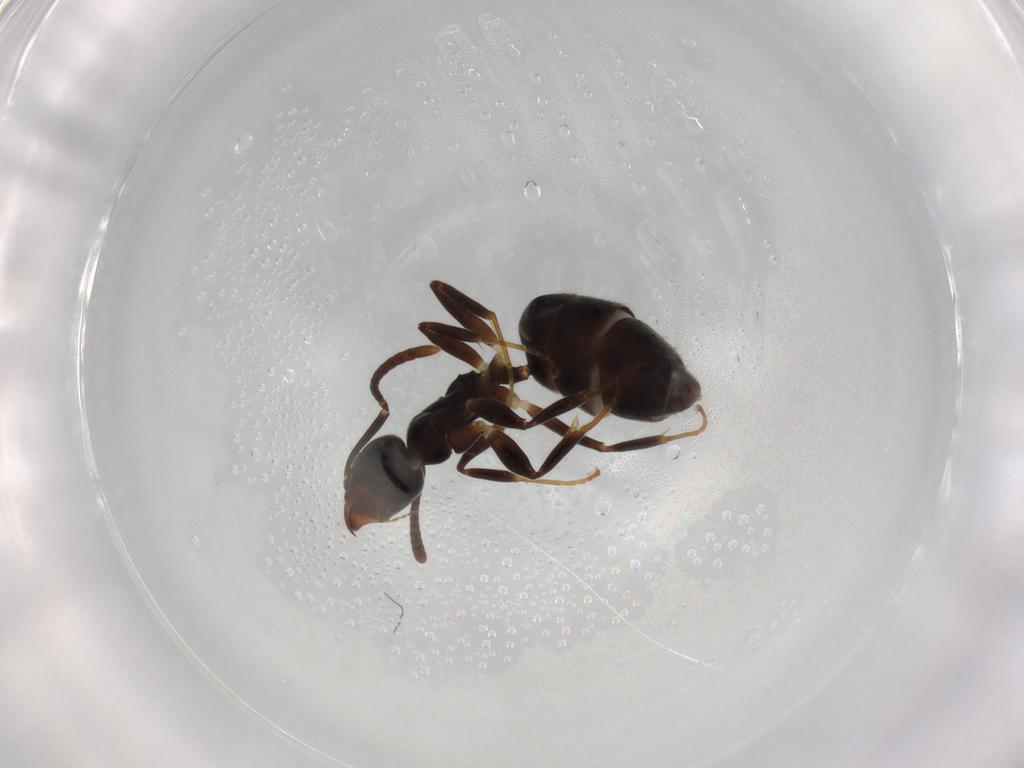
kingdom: Animalia
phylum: Arthropoda
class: Insecta
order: Hymenoptera
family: Formicidae
